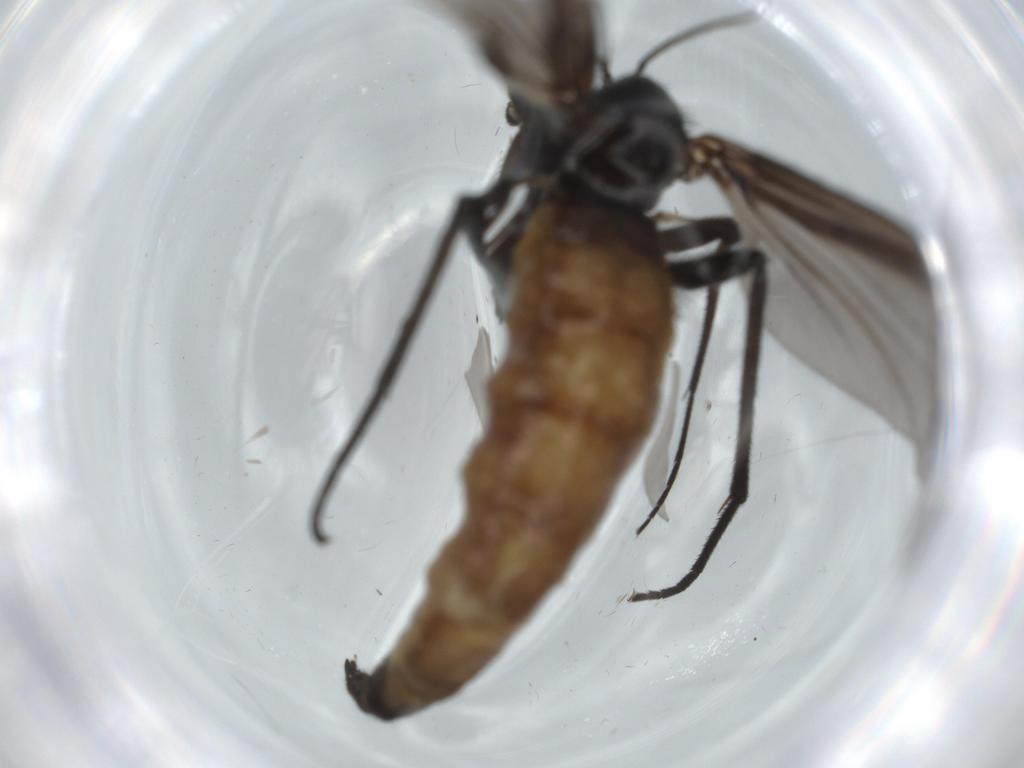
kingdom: Animalia
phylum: Arthropoda
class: Insecta
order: Diptera
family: Sciaridae
